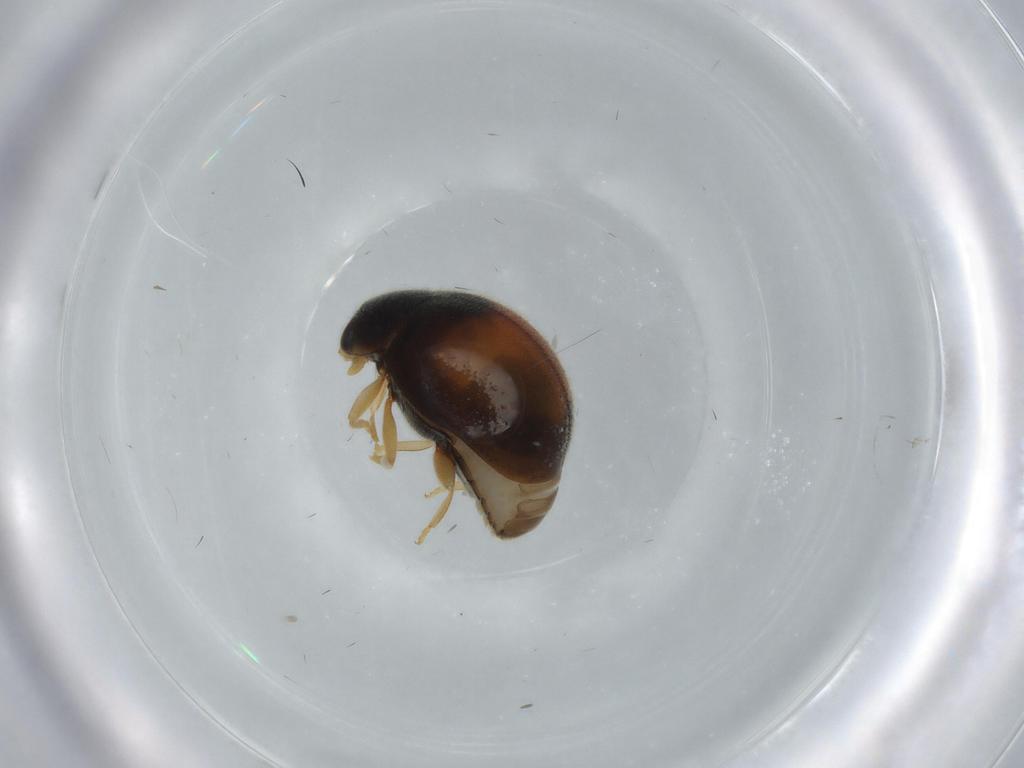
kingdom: Animalia
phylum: Arthropoda
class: Insecta
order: Coleoptera
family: Coccinellidae
